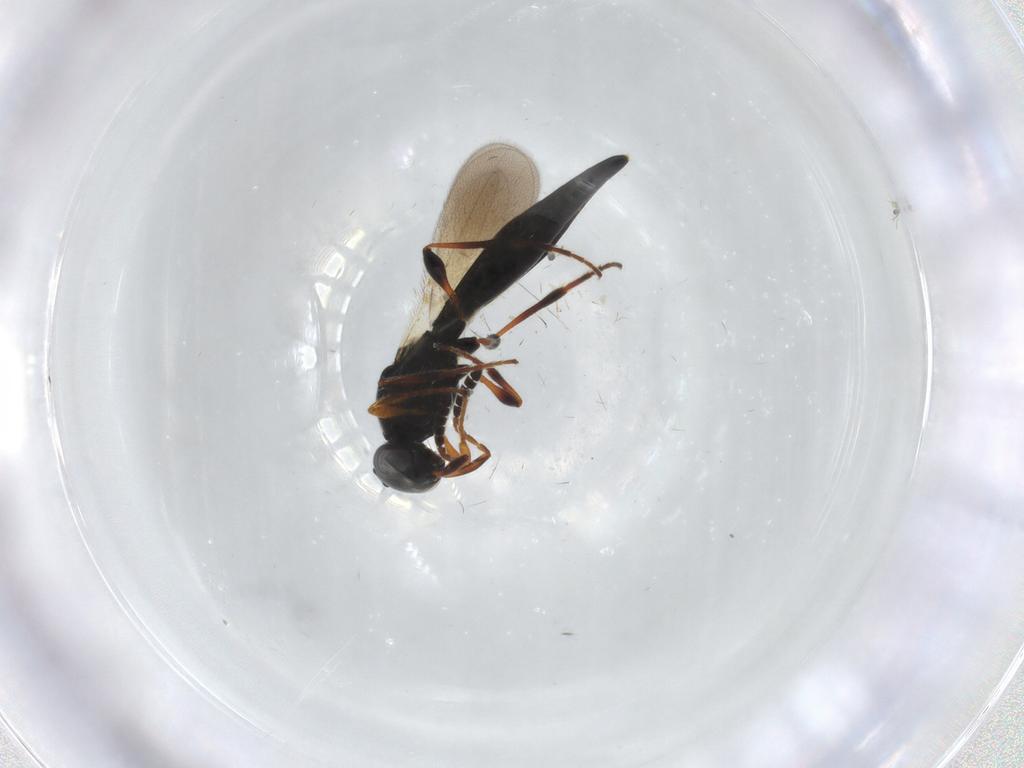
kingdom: Animalia
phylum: Arthropoda
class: Insecta
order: Hymenoptera
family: Platygastridae
